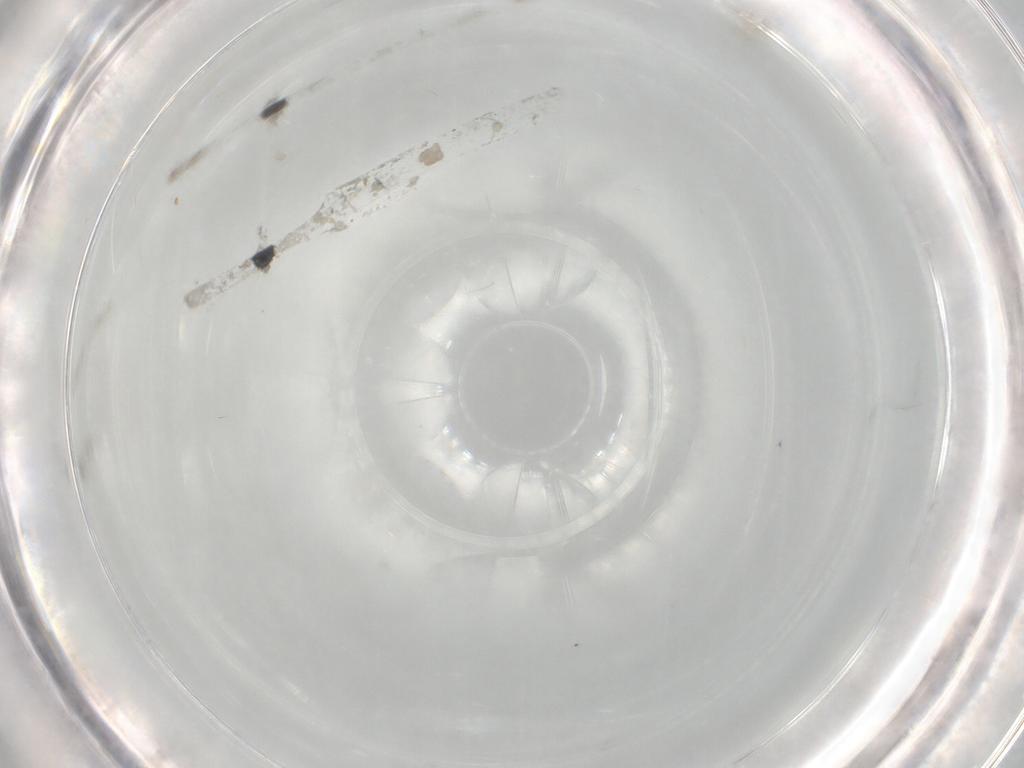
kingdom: Animalia
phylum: Arthropoda
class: Insecta
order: Diptera
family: Tipulidae
